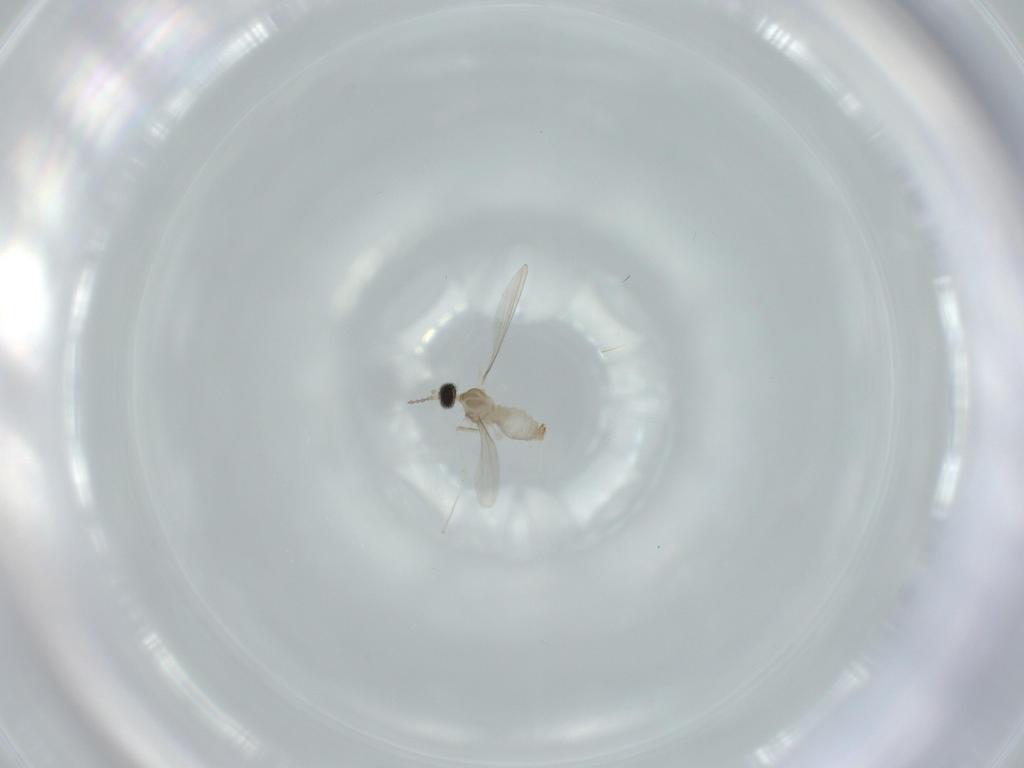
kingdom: Animalia
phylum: Arthropoda
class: Insecta
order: Diptera
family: Cecidomyiidae
